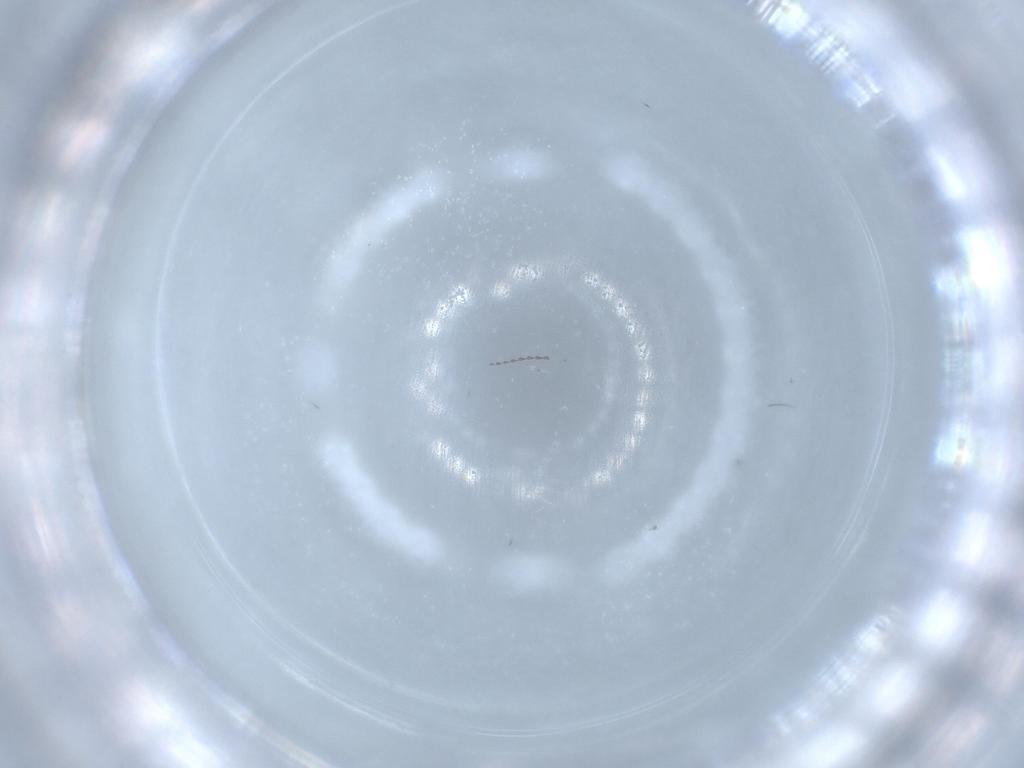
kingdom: Animalia
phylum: Arthropoda
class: Insecta
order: Diptera
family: Cecidomyiidae
